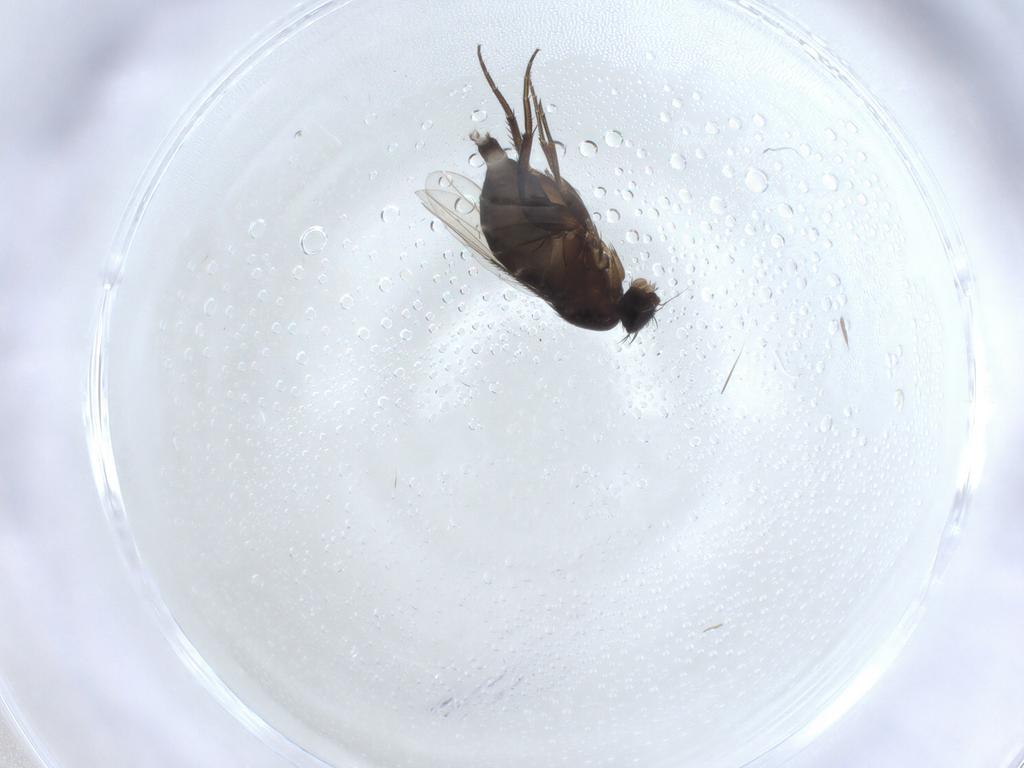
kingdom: Animalia
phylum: Arthropoda
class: Insecta
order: Diptera
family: Phoridae
